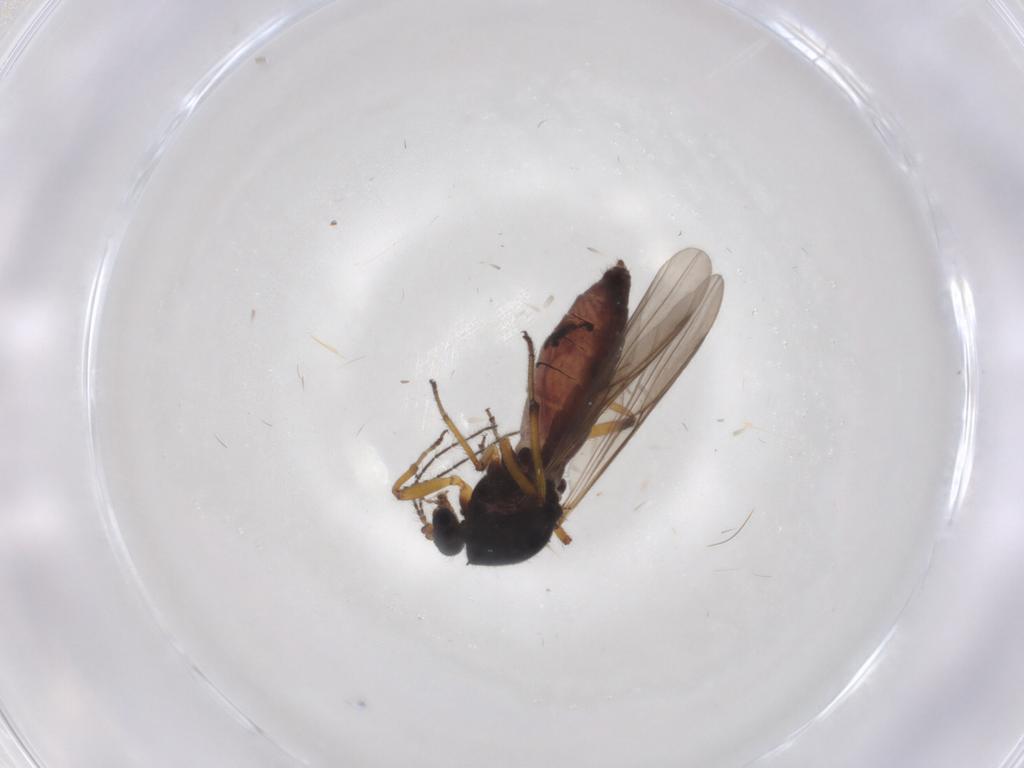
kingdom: Animalia
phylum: Arthropoda
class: Insecta
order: Diptera
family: Ceratopogonidae
